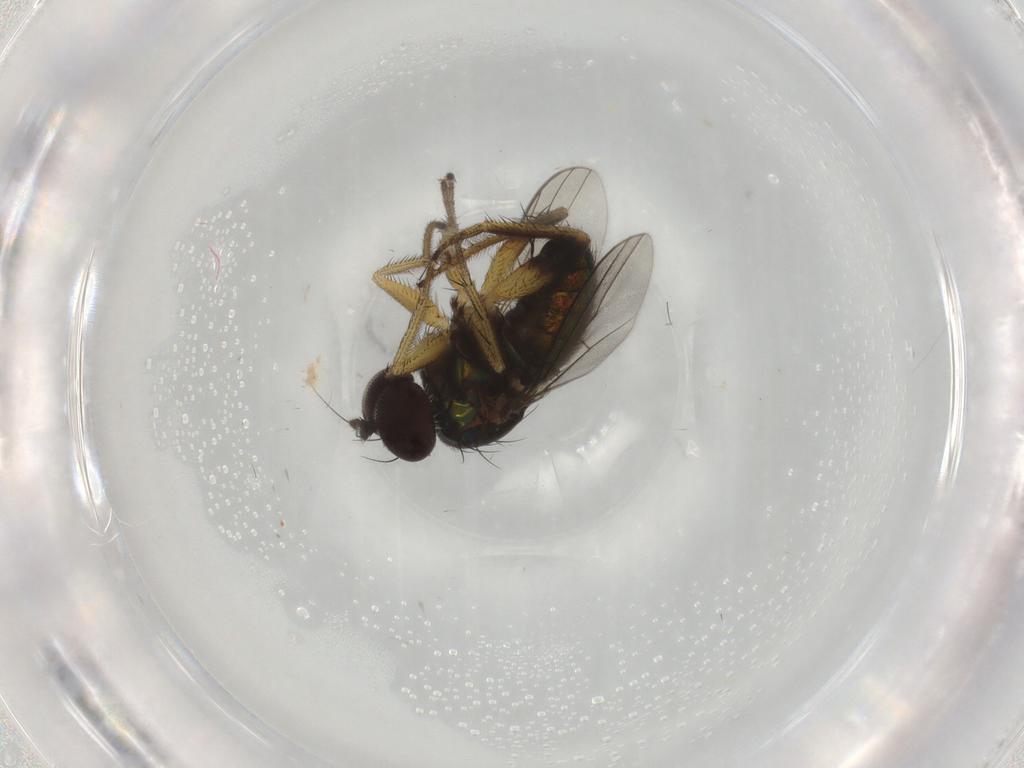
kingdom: Animalia
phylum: Arthropoda
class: Insecta
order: Diptera
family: Dolichopodidae
